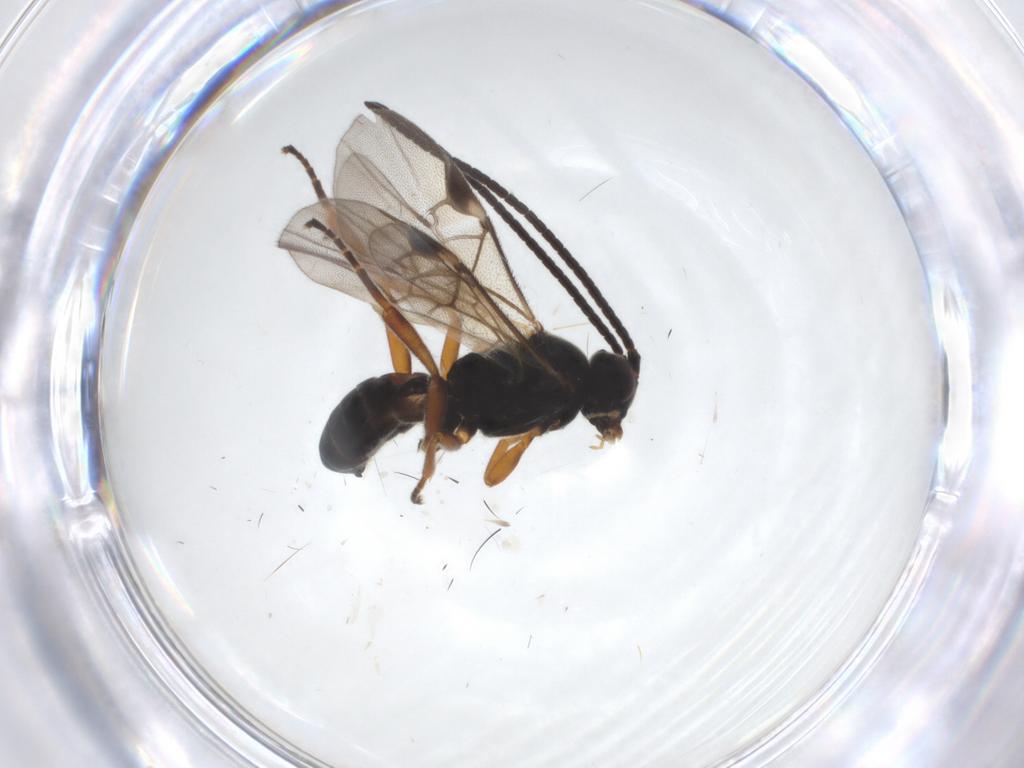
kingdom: Animalia
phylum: Arthropoda
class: Insecta
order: Hymenoptera
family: Braconidae
